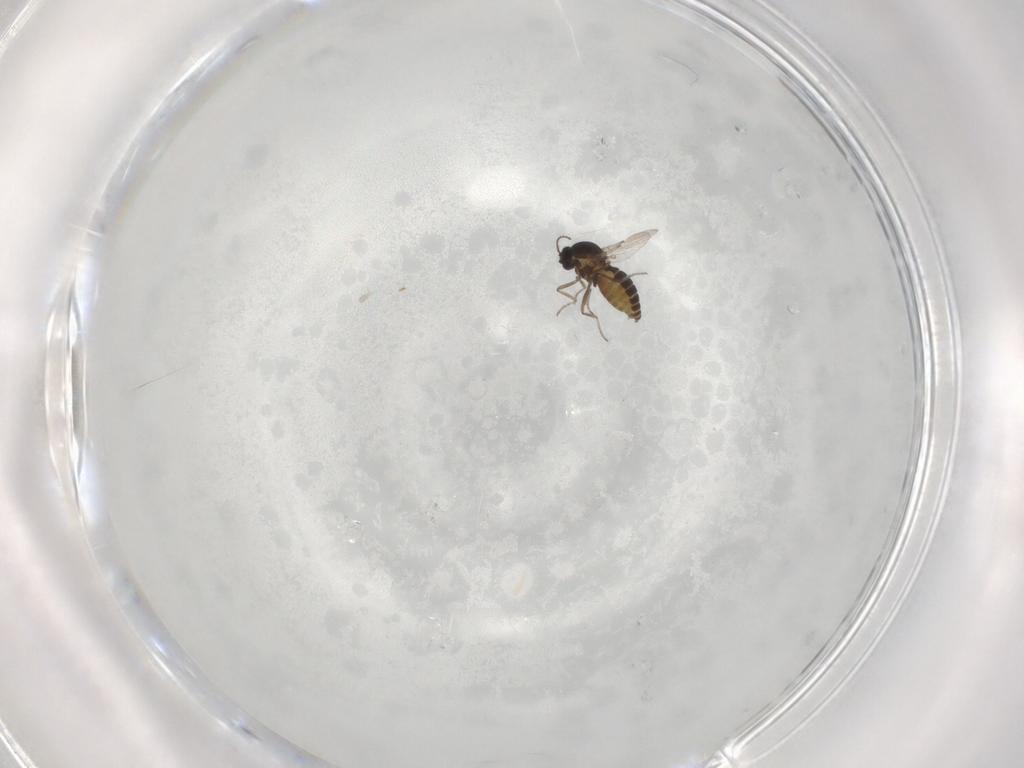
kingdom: Animalia
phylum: Arthropoda
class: Insecta
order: Diptera
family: Ceratopogonidae
